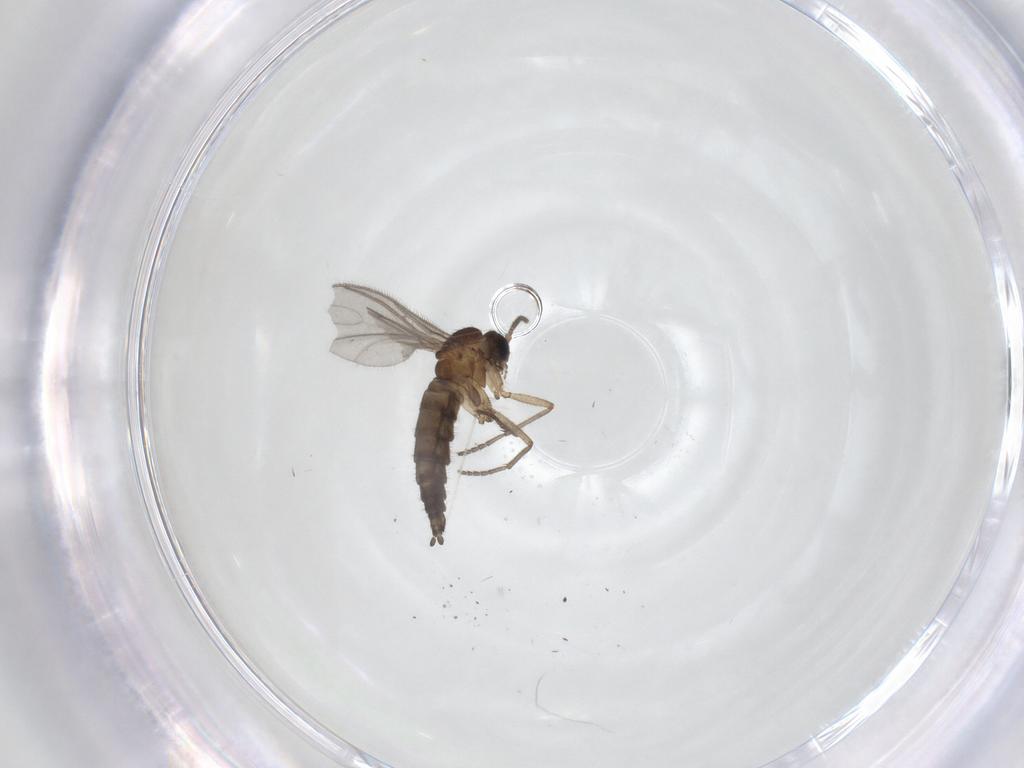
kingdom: Animalia
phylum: Arthropoda
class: Insecta
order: Diptera
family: Sciaridae
